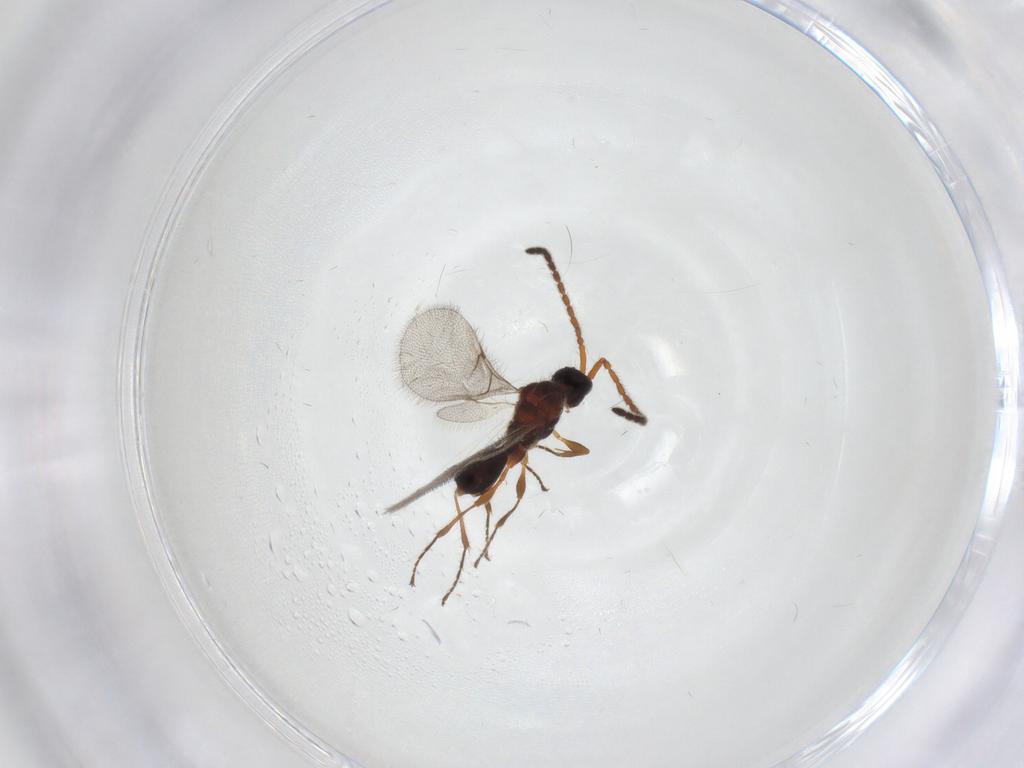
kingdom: Animalia
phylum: Arthropoda
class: Insecta
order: Hymenoptera
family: Diapriidae
